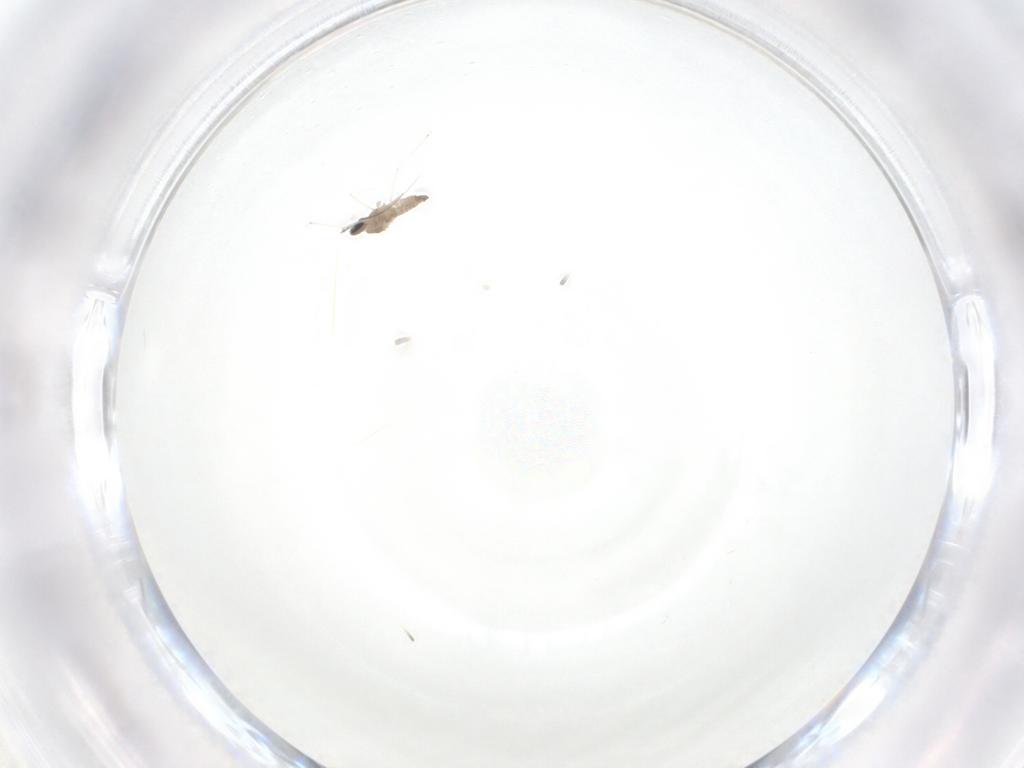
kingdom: Animalia
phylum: Arthropoda
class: Insecta
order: Diptera
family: Cecidomyiidae
